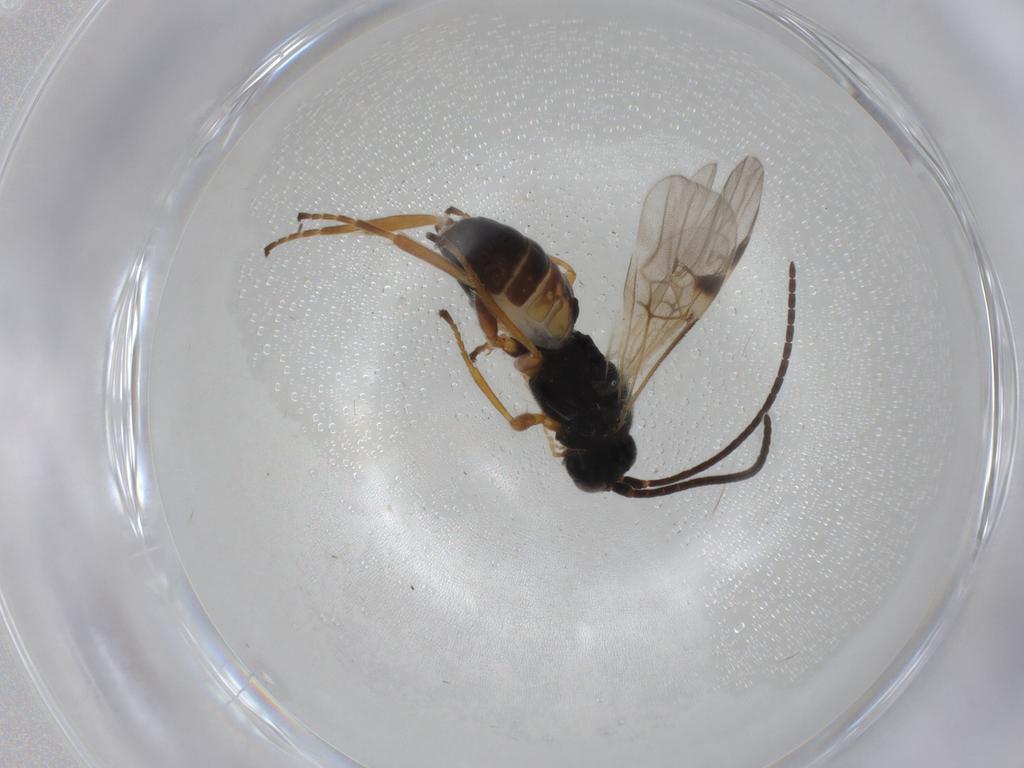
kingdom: Animalia
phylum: Arthropoda
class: Insecta
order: Hymenoptera
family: Braconidae
